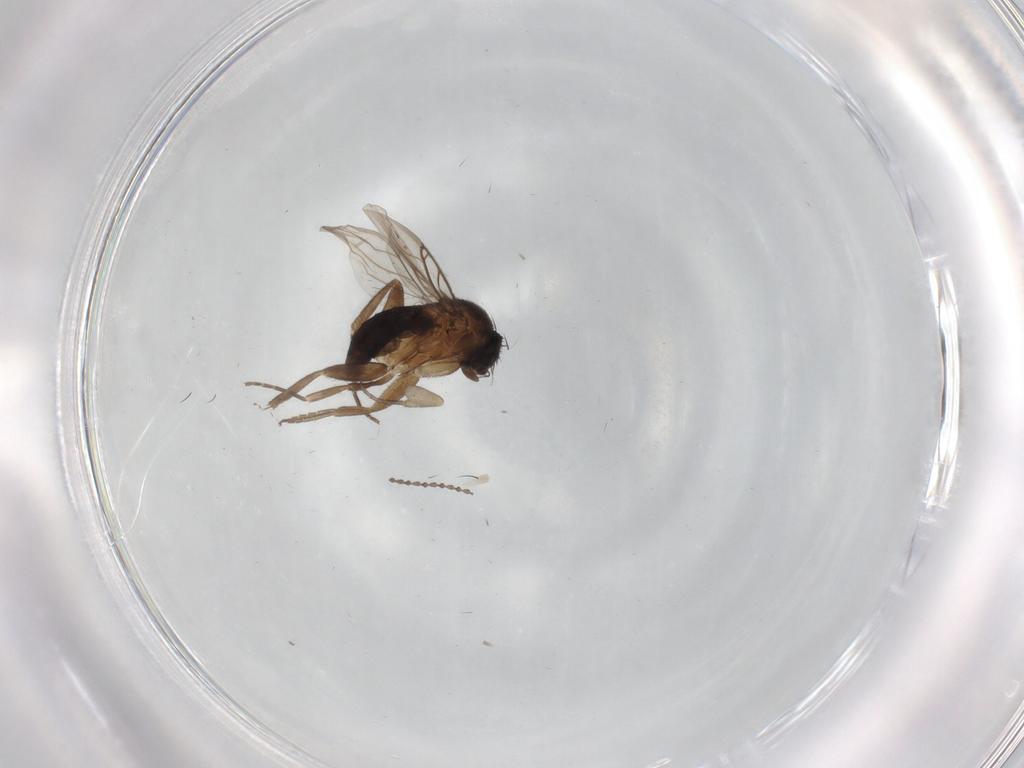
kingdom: Animalia
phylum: Arthropoda
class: Insecta
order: Diptera
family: Phoridae
